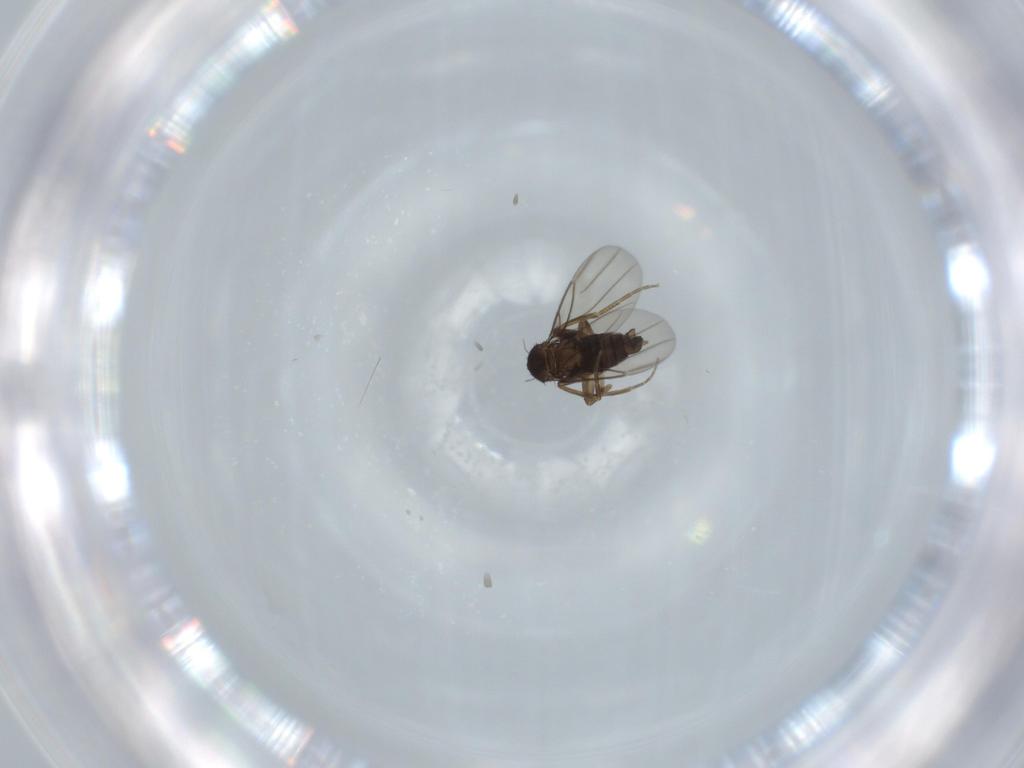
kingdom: Animalia
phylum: Arthropoda
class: Insecta
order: Diptera
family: Phoridae
